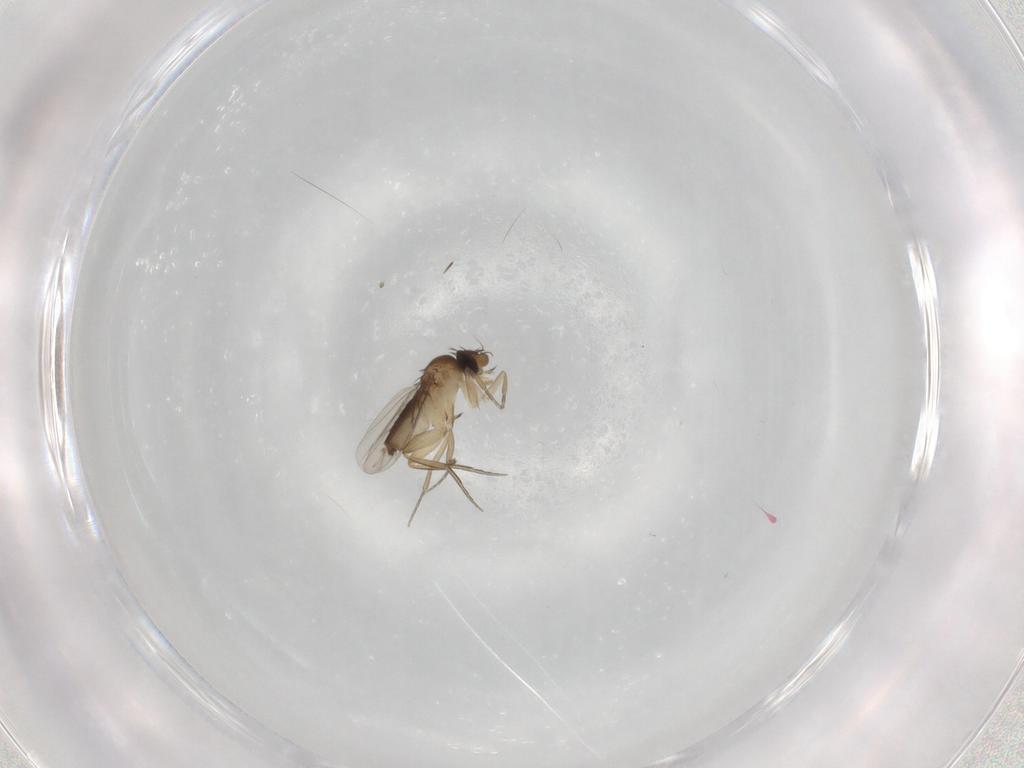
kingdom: Animalia
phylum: Arthropoda
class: Insecta
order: Diptera
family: Phoridae
